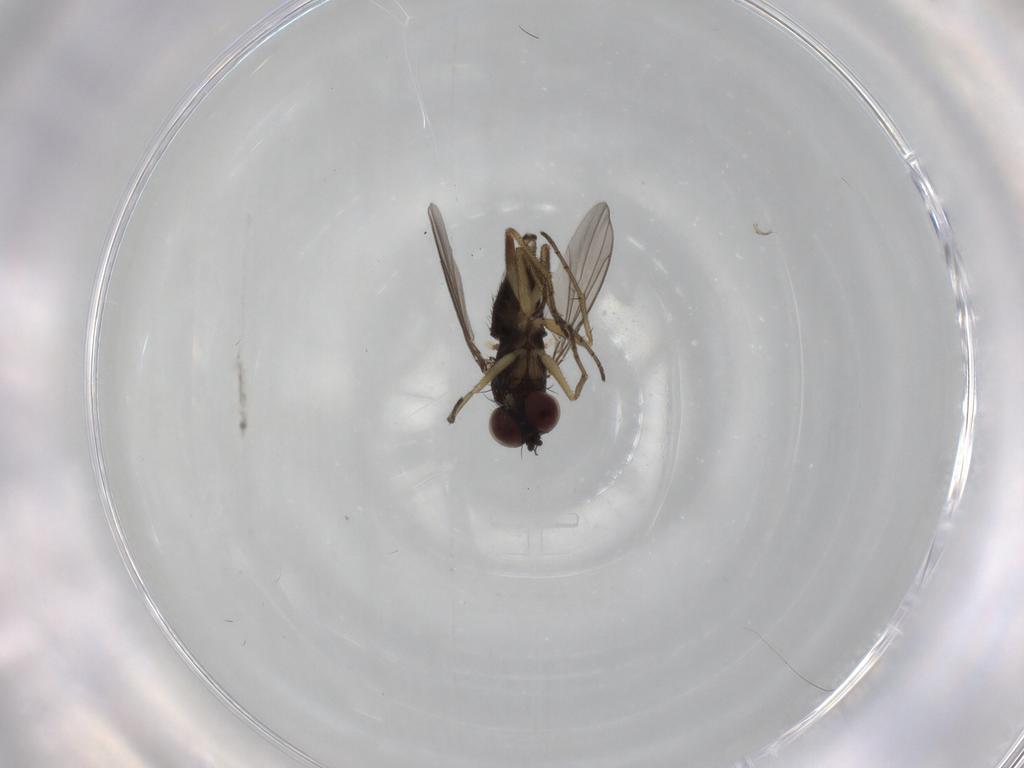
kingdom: Animalia
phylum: Arthropoda
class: Insecta
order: Diptera
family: Dolichopodidae
